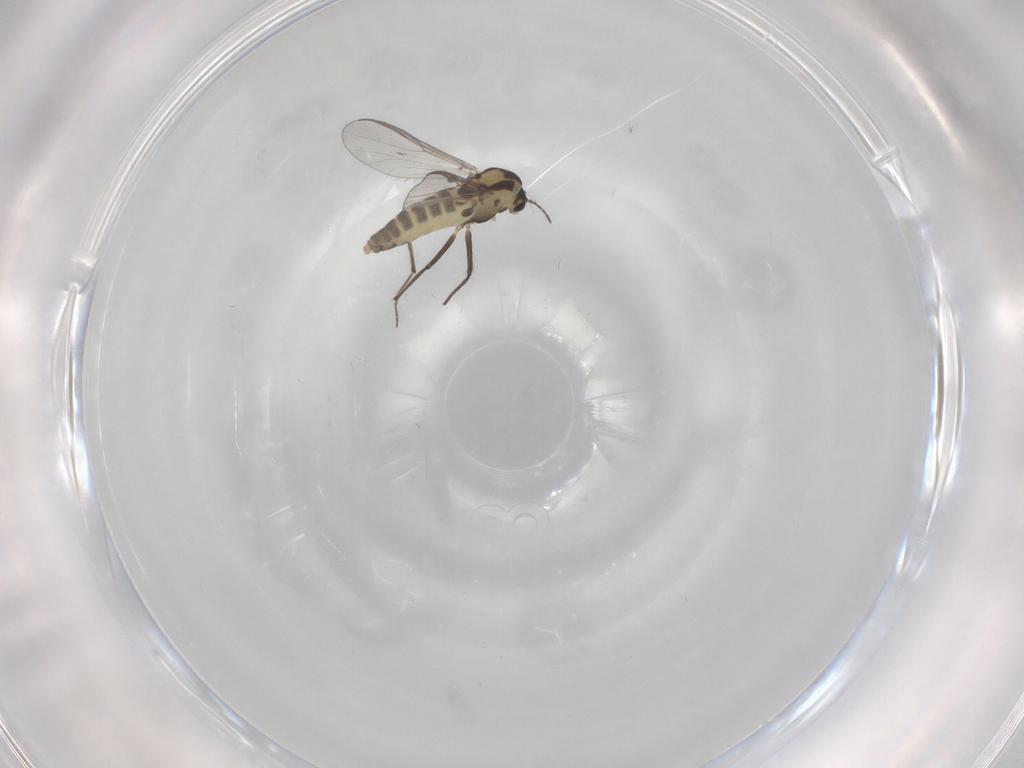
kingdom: Animalia
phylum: Arthropoda
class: Insecta
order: Diptera
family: Chironomidae
